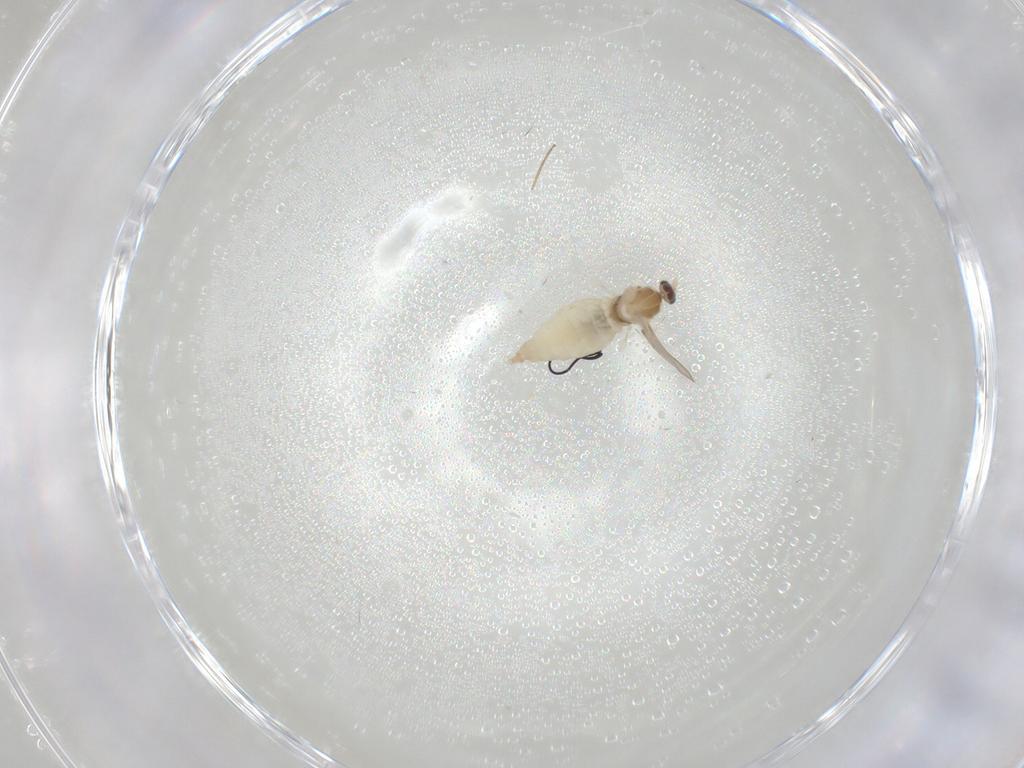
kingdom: Animalia
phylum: Arthropoda
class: Insecta
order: Diptera
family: Cecidomyiidae
